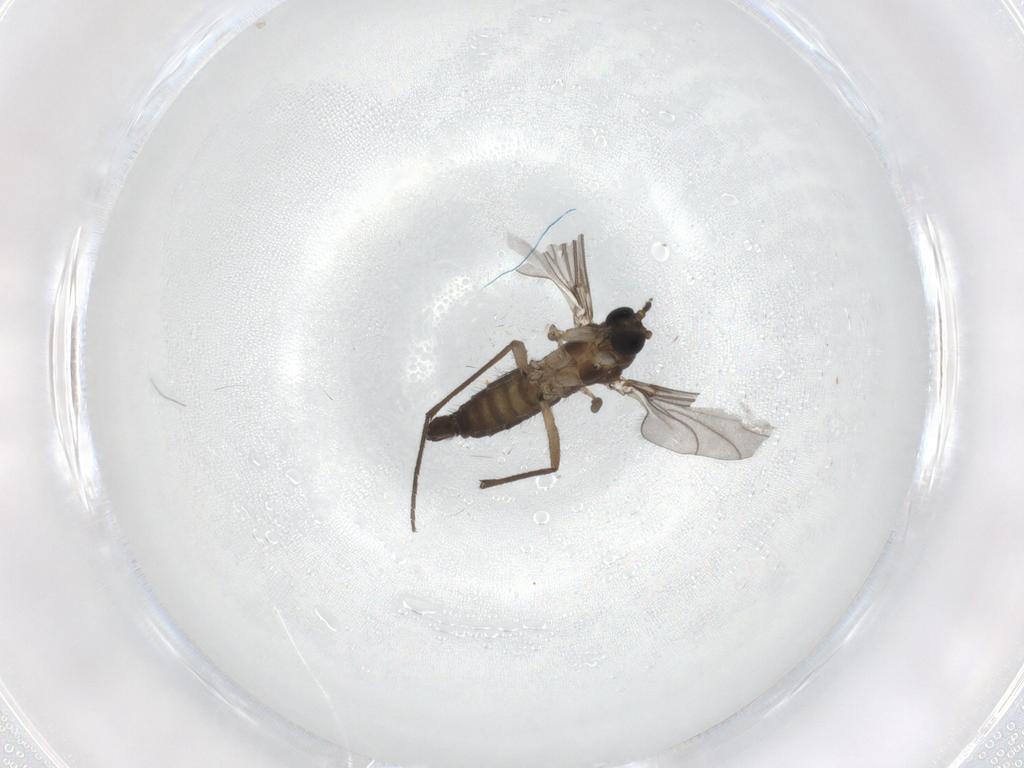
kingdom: Animalia
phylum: Arthropoda
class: Insecta
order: Diptera
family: Sciaridae
